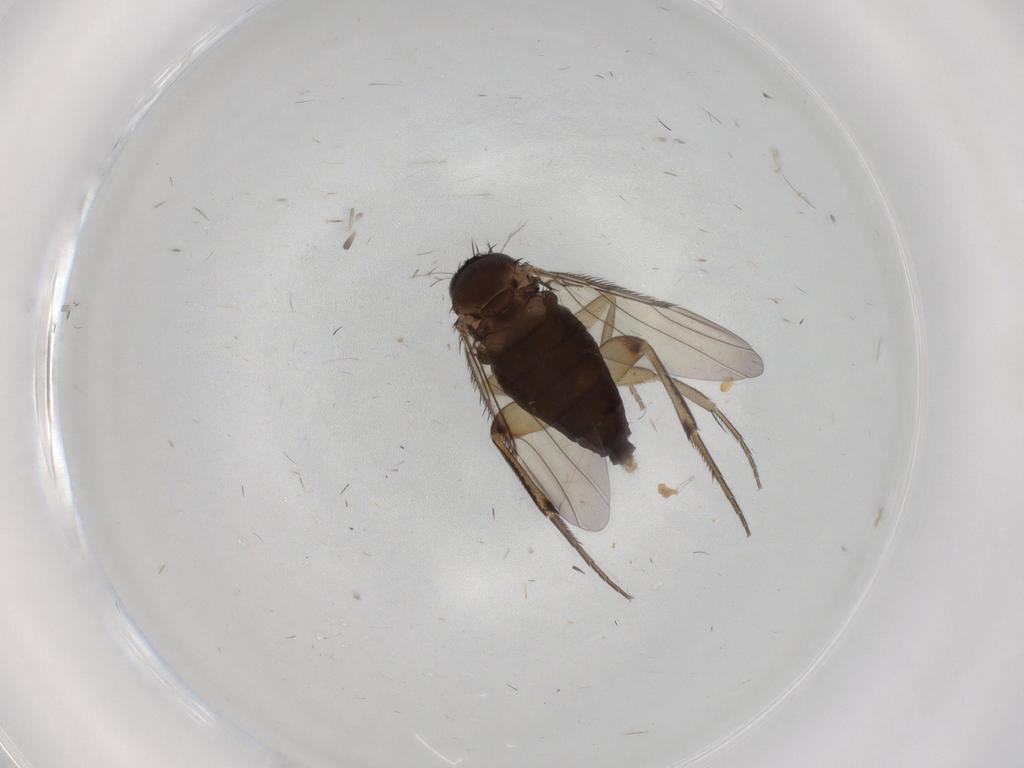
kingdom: Animalia
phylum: Arthropoda
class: Insecta
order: Diptera
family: Phoridae
